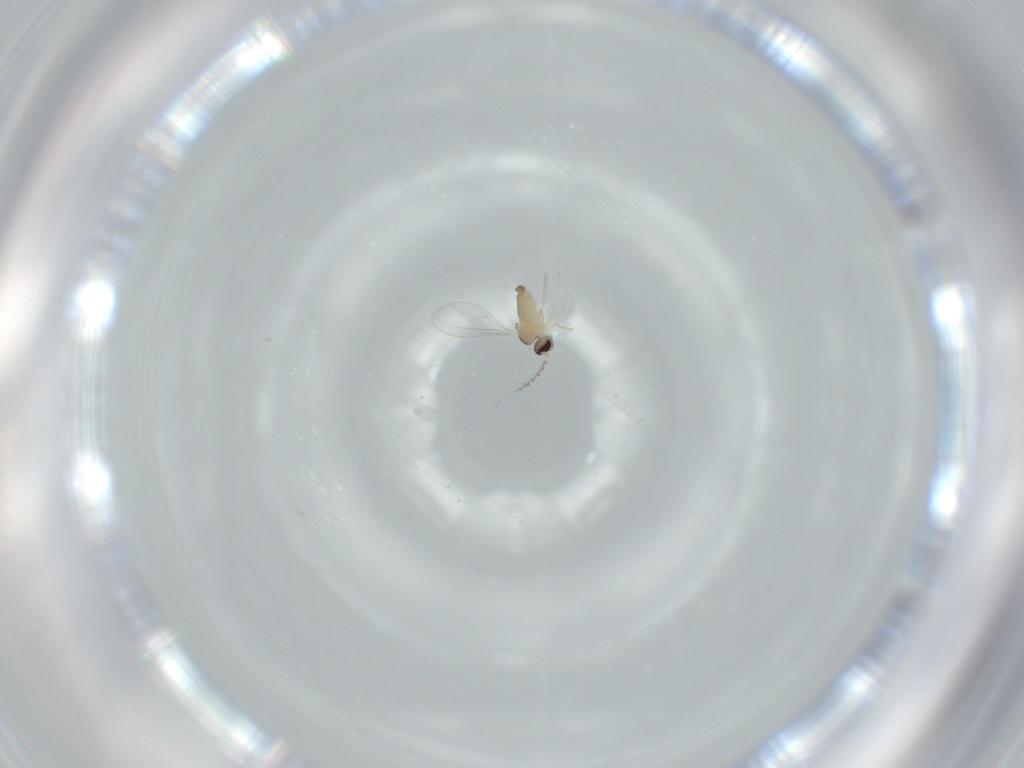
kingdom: Animalia
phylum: Arthropoda
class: Insecta
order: Diptera
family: Cecidomyiidae
